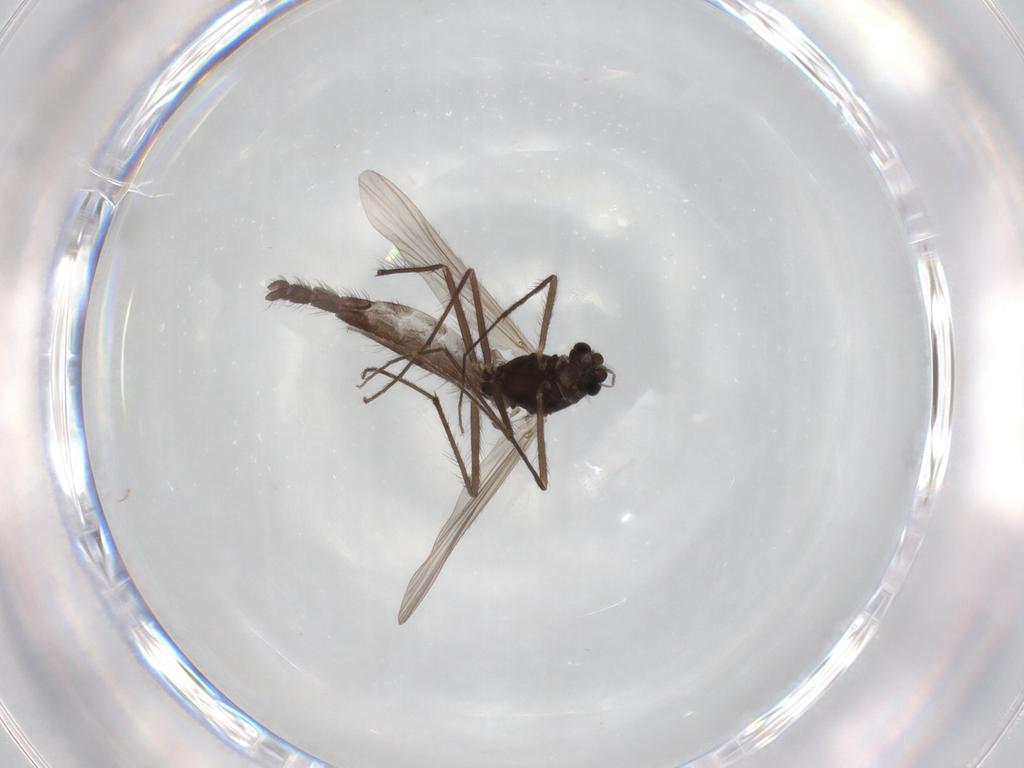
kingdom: Animalia
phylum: Arthropoda
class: Insecta
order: Diptera
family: Chironomidae
